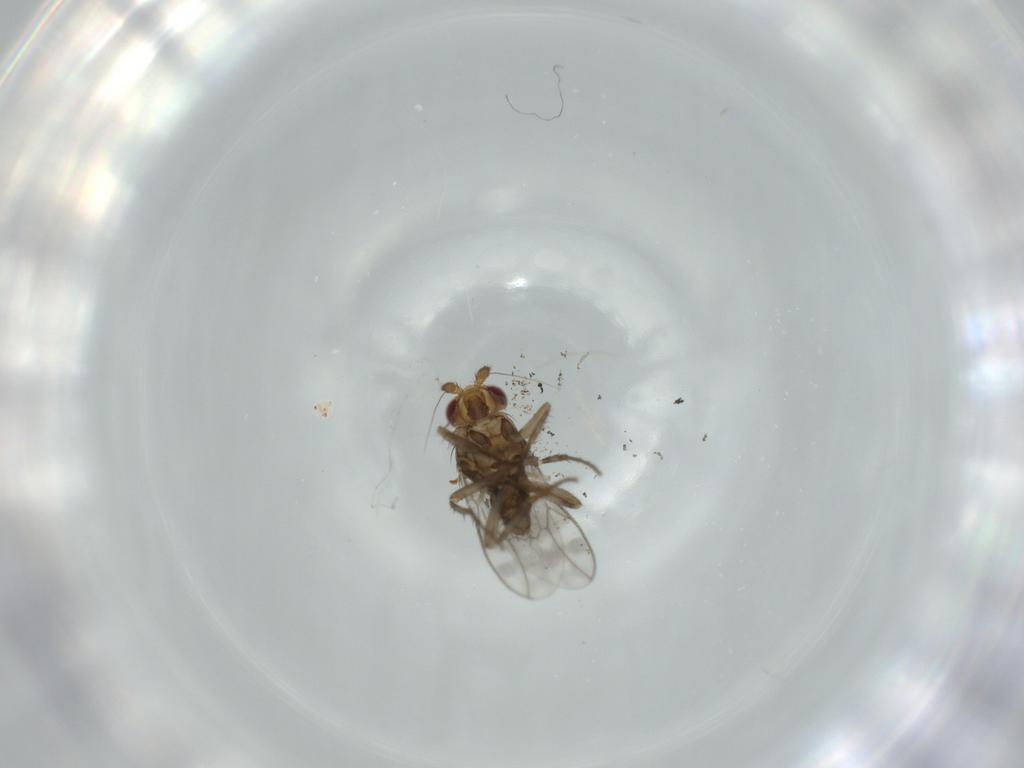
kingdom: Animalia
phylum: Arthropoda
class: Insecta
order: Diptera
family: Sphaeroceridae
